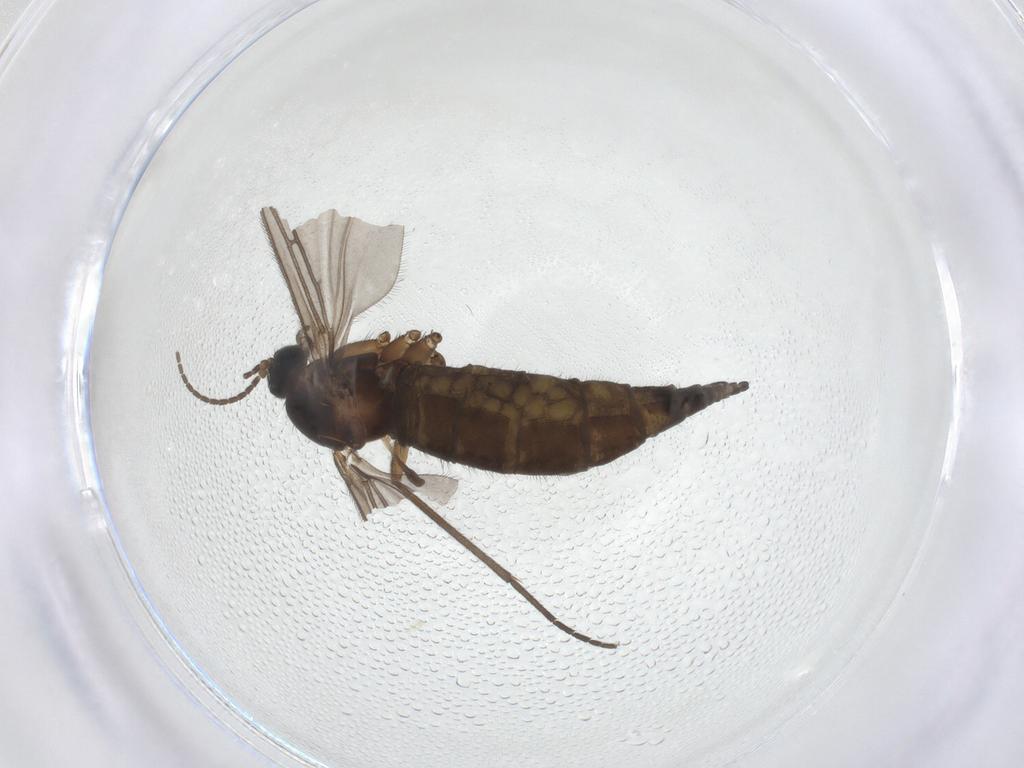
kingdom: Animalia
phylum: Arthropoda
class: Insecta
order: Diptera
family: Sciaridae
